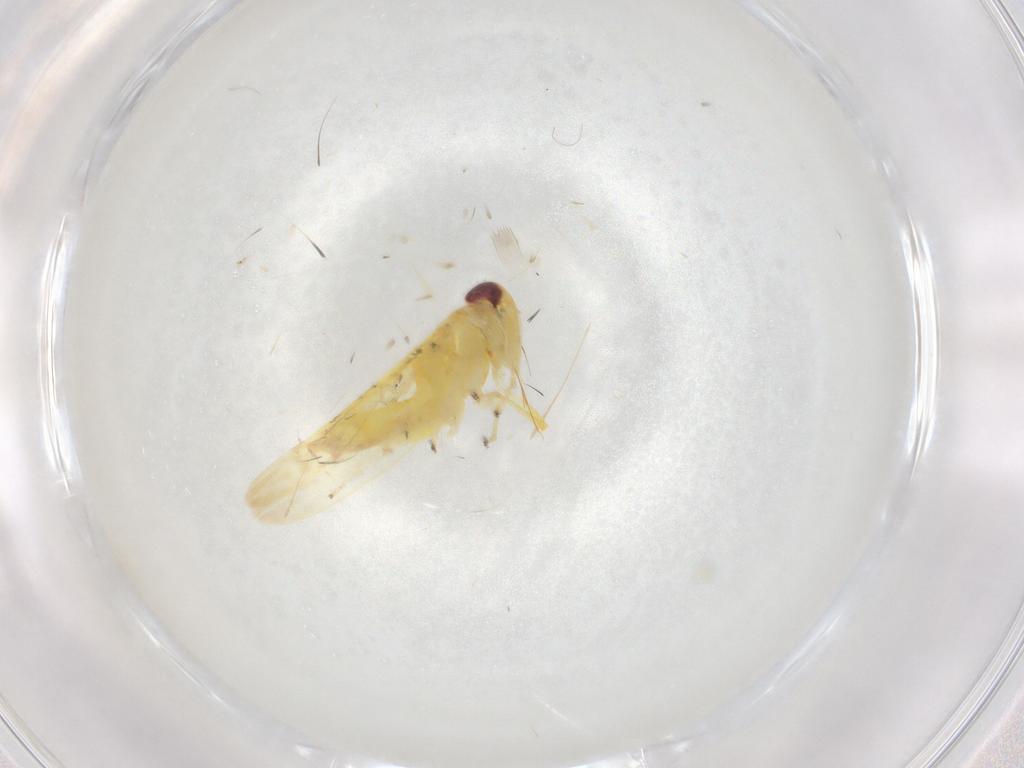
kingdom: Animalia
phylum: Arthropoda
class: Insecta
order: Hemiptera
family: Cicadellidae
